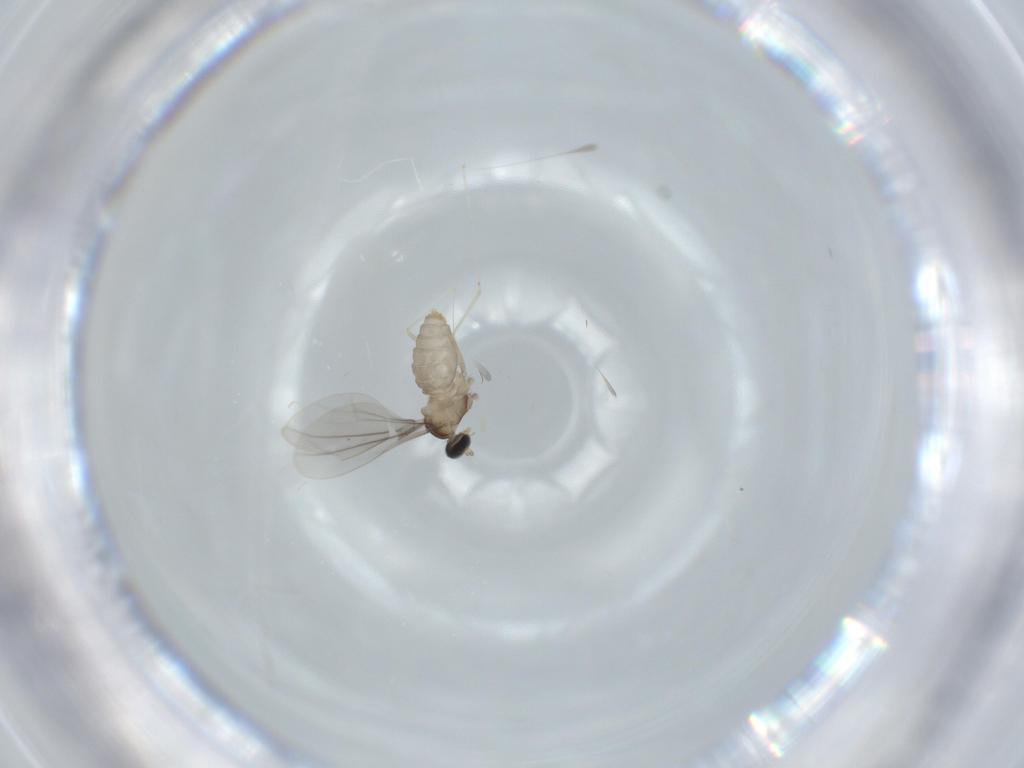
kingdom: Animalia
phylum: Arthropoda
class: Insecta
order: Diptera
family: Cecidomyiidae
